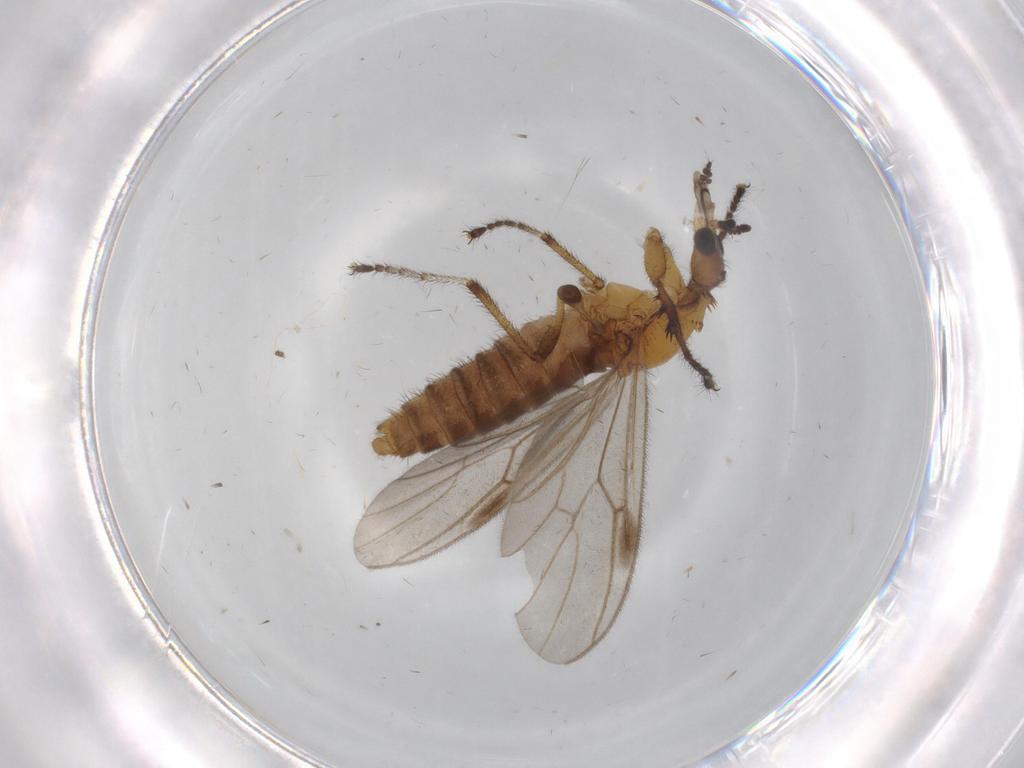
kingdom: Animalia
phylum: Arthropoda
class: Insecta
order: Diptera
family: Bibionidae
